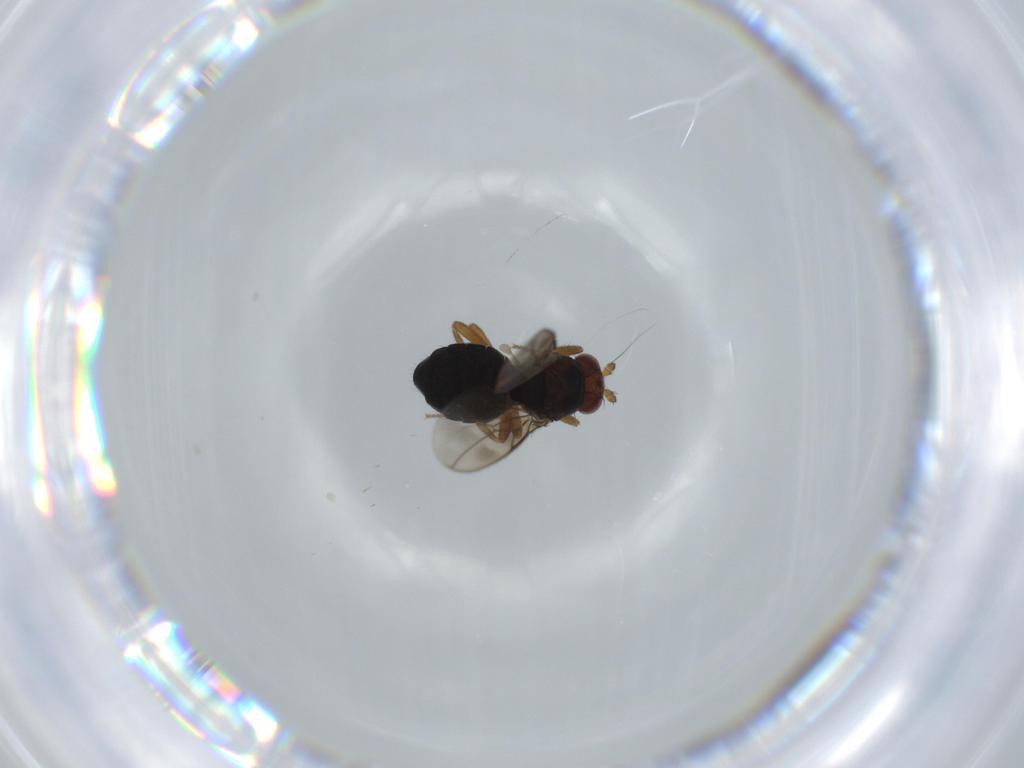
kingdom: Animalia
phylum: Arthropoda
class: Insecta
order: Diptera
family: Sphaeroceridae
